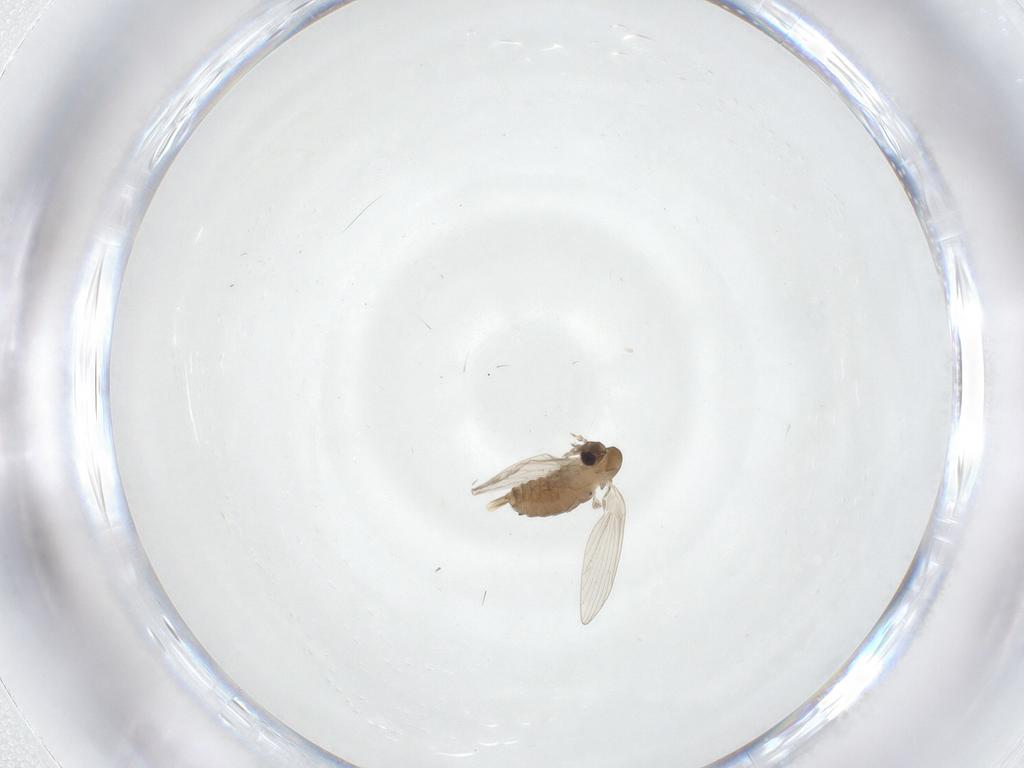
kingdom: Animalia
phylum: Arthropoda
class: Insecta
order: Diptera
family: Psychodidae
